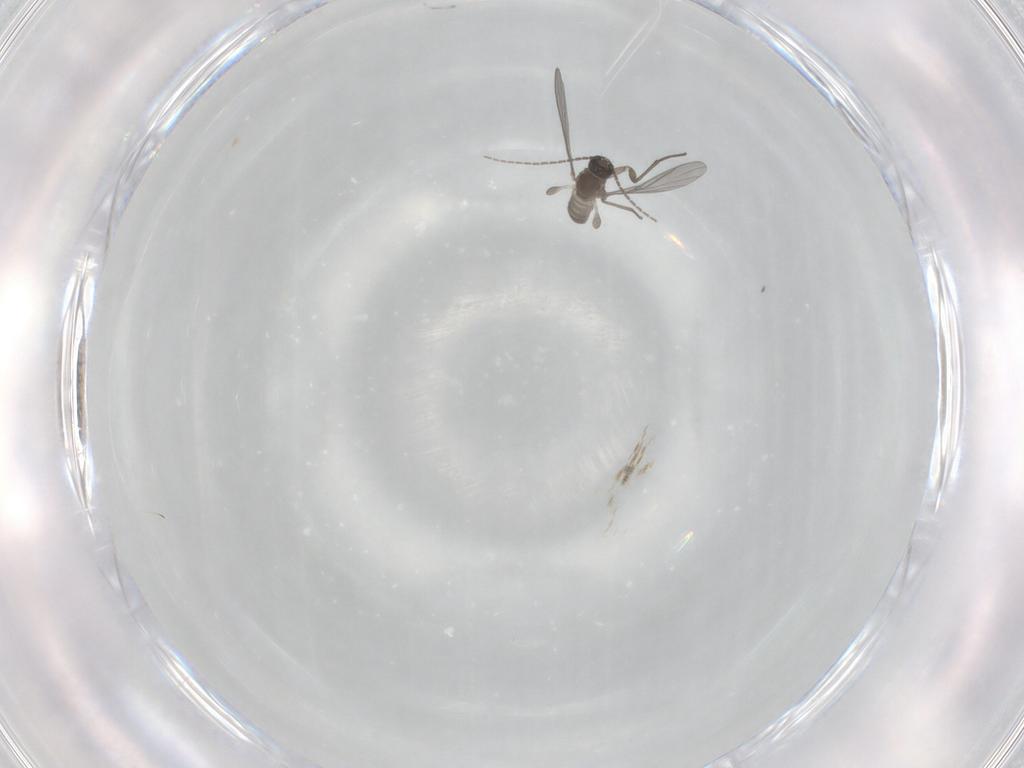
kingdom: Animalia
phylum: Arthropoda
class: Insecta
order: Diptera
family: Sciaridae
